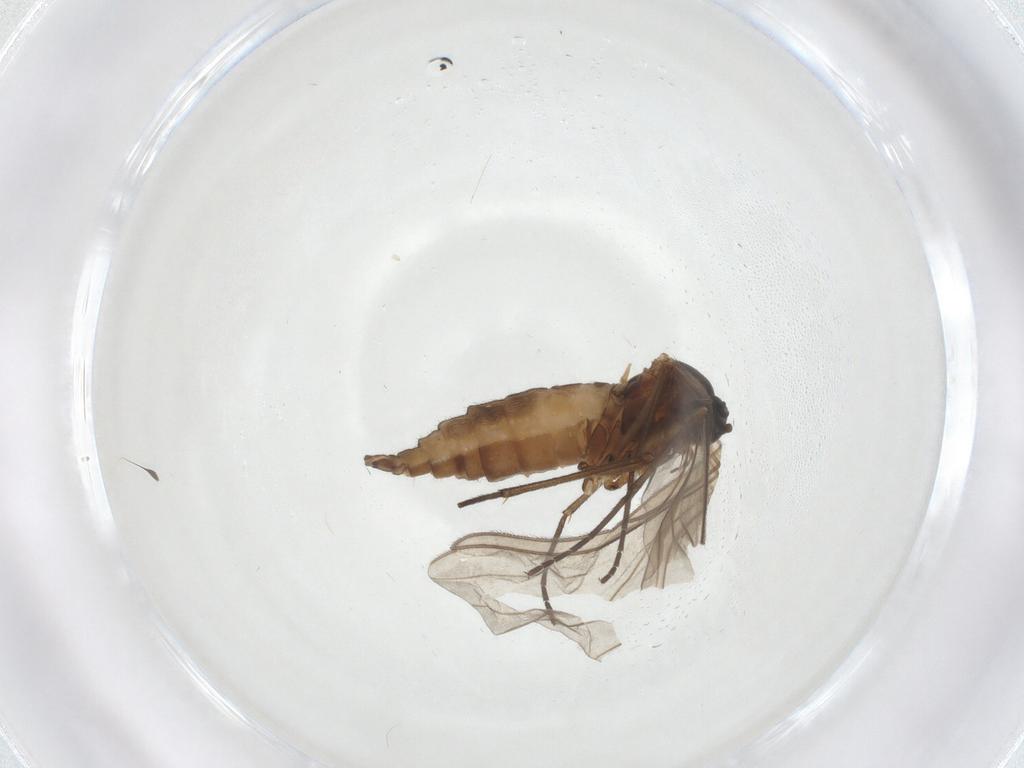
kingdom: Animalia
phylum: Arthropoda
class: Insecta
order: Diptera
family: Sciaridae
